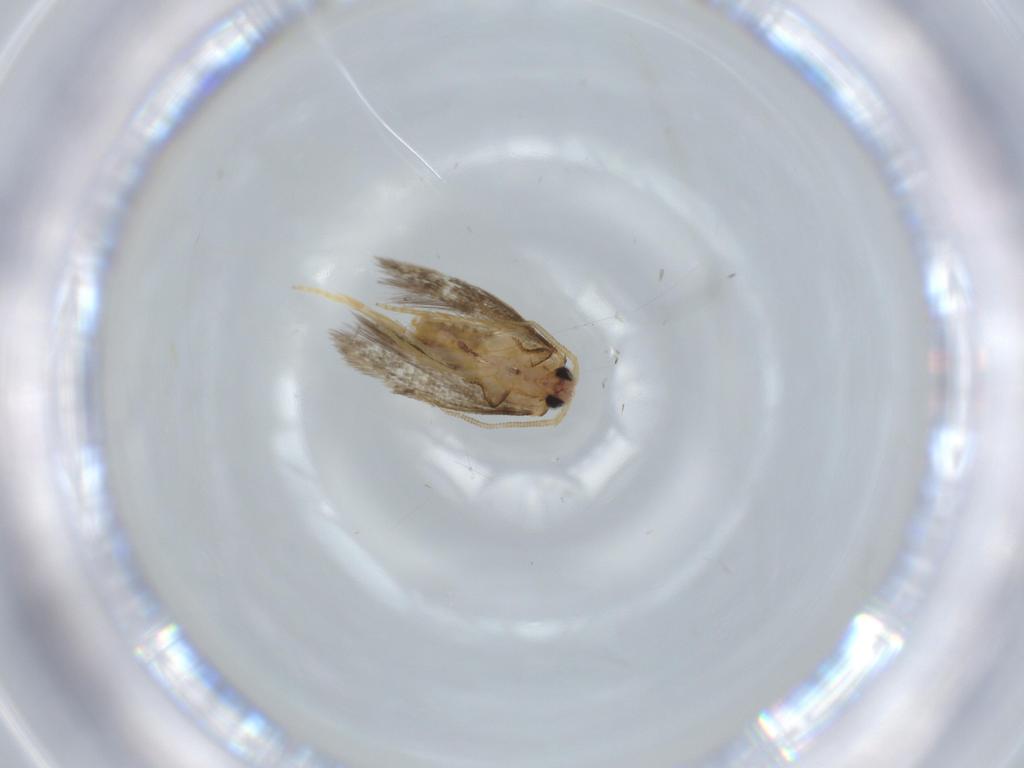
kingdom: Animalia
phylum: Arthropoda
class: Insecta
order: Lepidoptera
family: Nepticulidae
